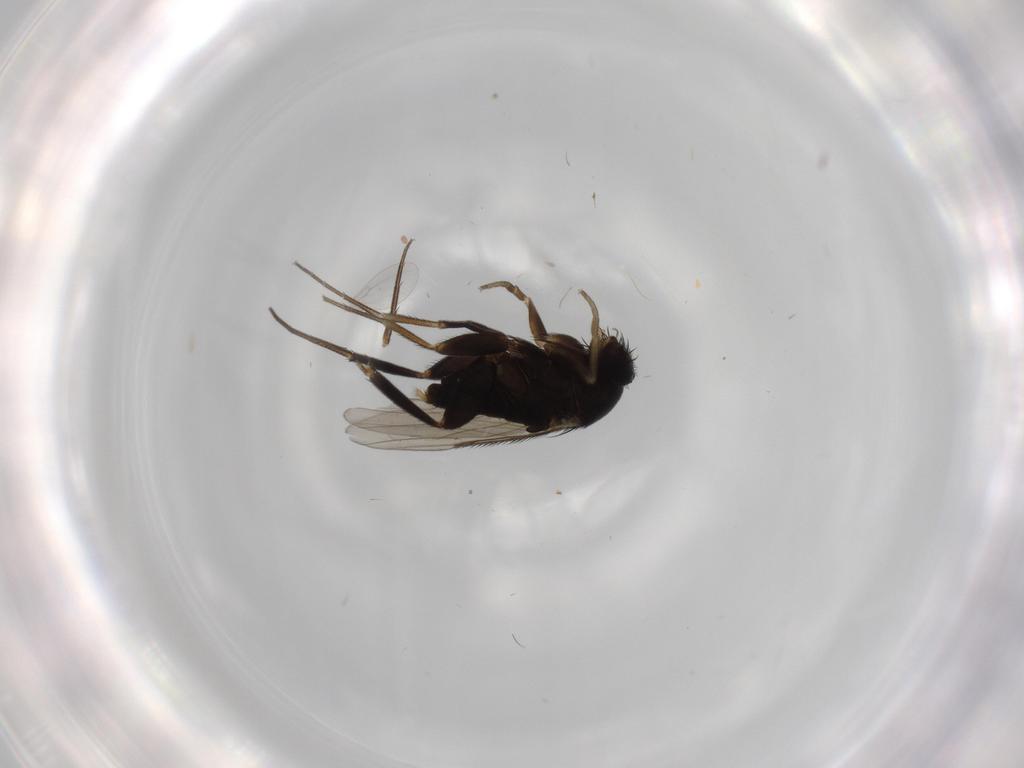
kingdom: Animalia
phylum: Arthropoda
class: Insecta
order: Diptera
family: Phoridae
